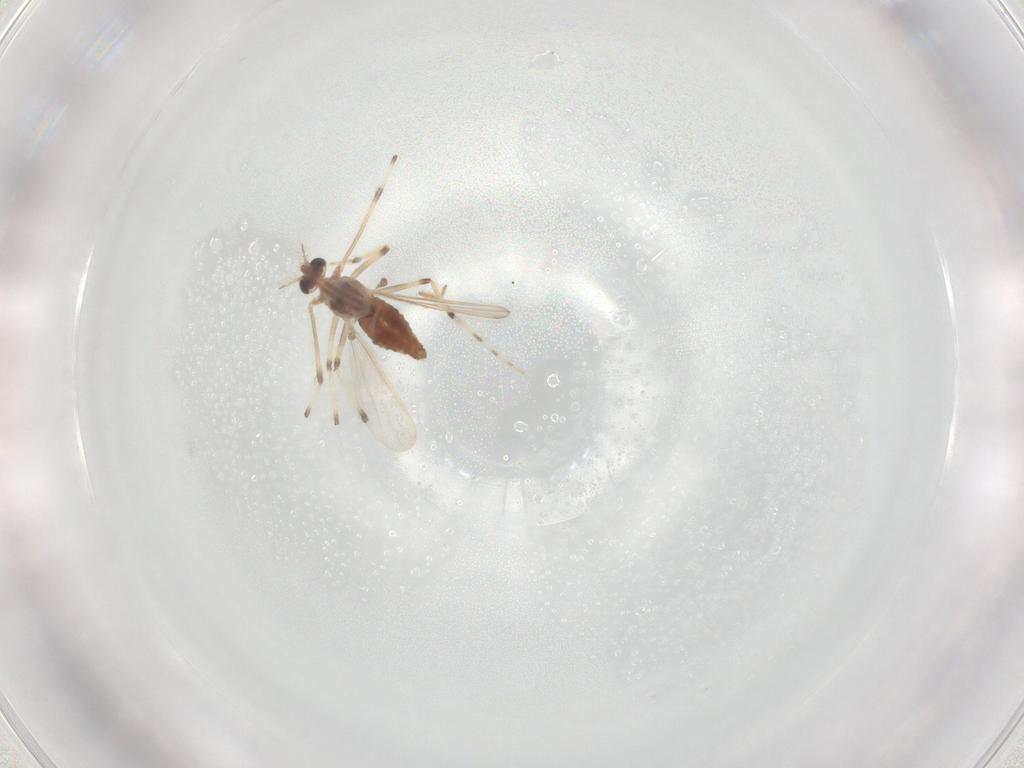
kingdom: Animalia
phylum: Arthropoda
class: Insecta
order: Diptera
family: Chironomidae
